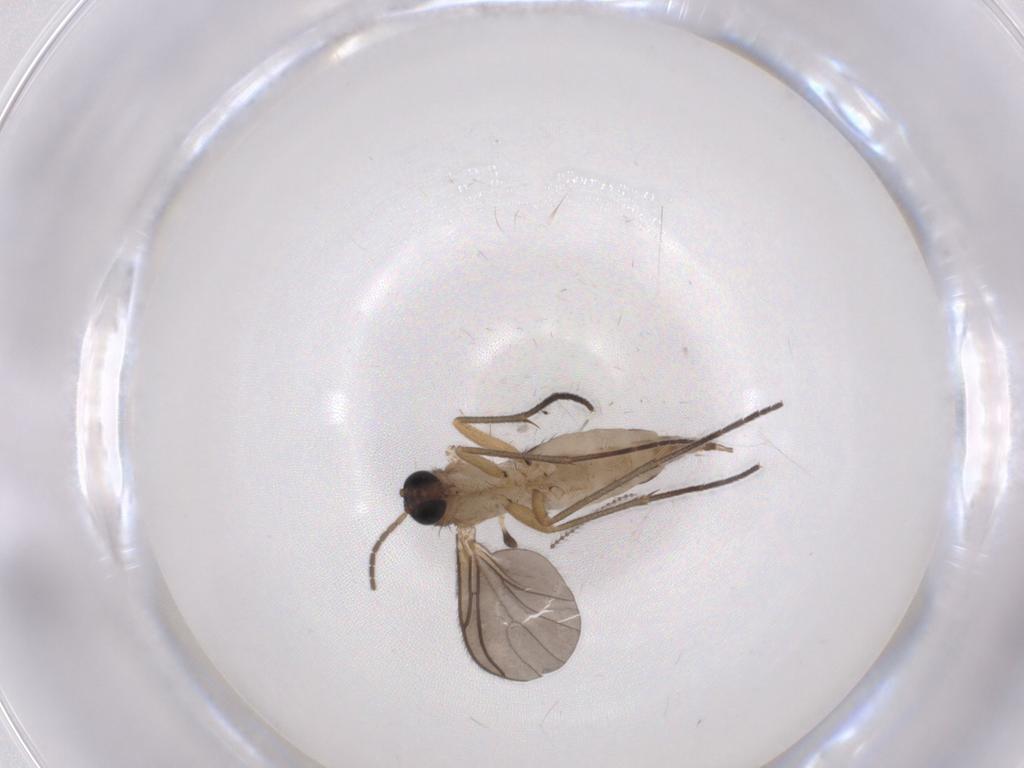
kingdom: Animalia
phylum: Arthropoda
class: Insecta
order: Diptera
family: Sciaridae
